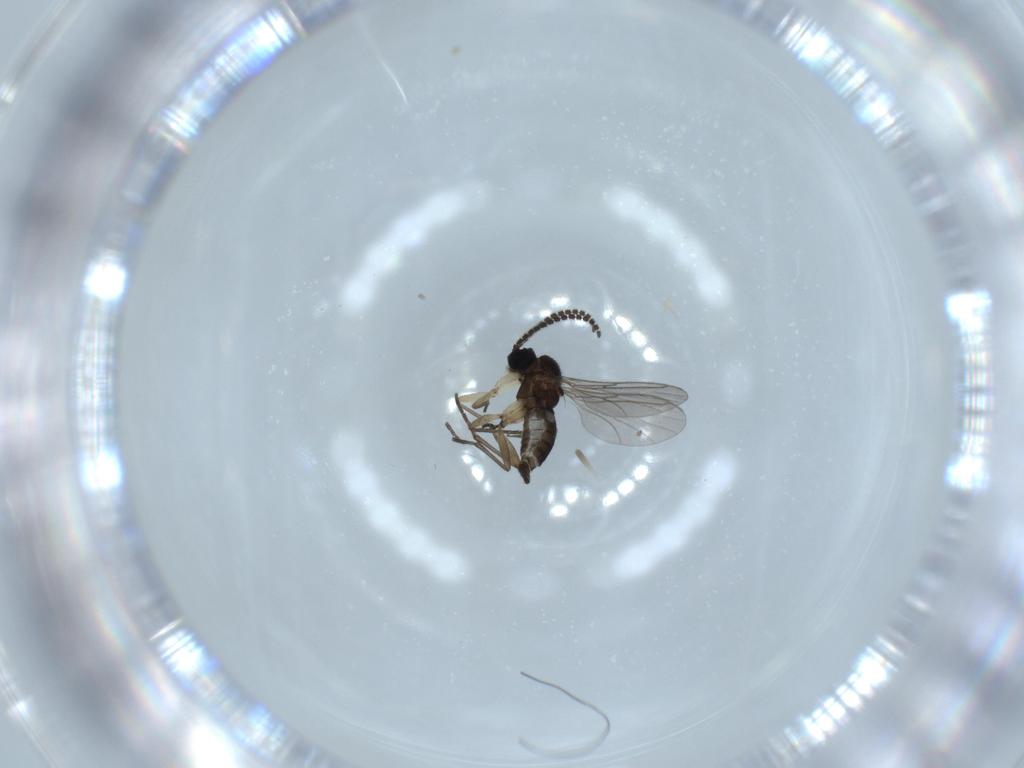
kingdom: Animalia
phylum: Arthropoda
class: Insecta
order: Diptera
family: Sciaridae
